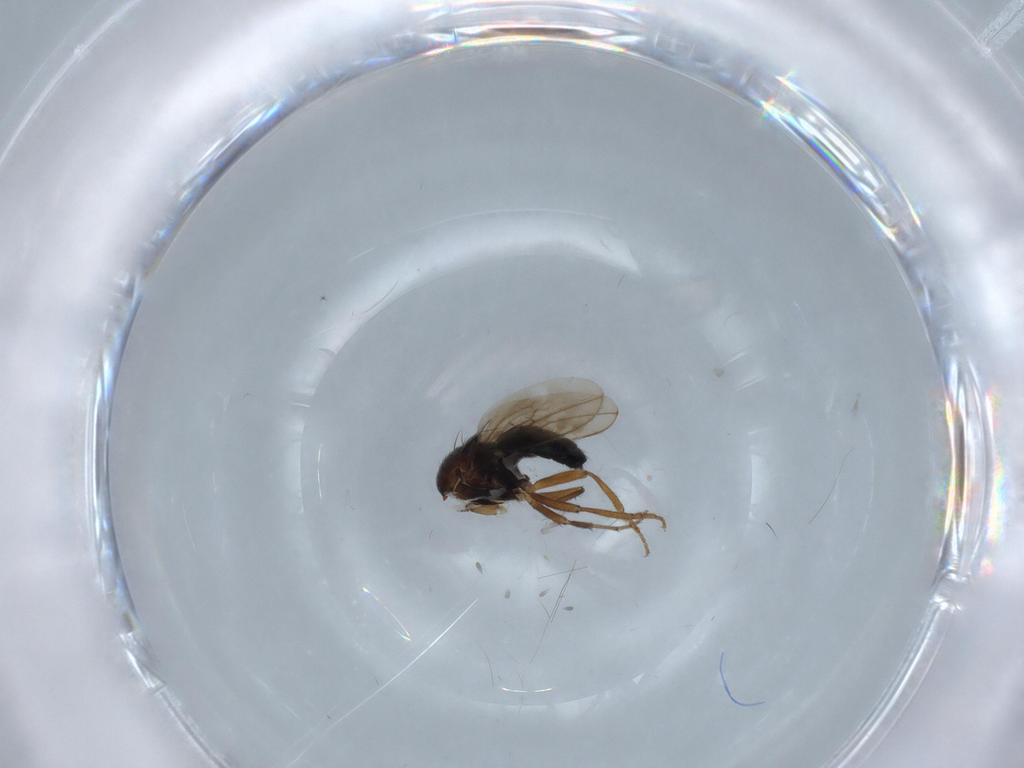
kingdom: Animalia
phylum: Arthropoda
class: Insecta
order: Diptera
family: Sphaeroceridae
